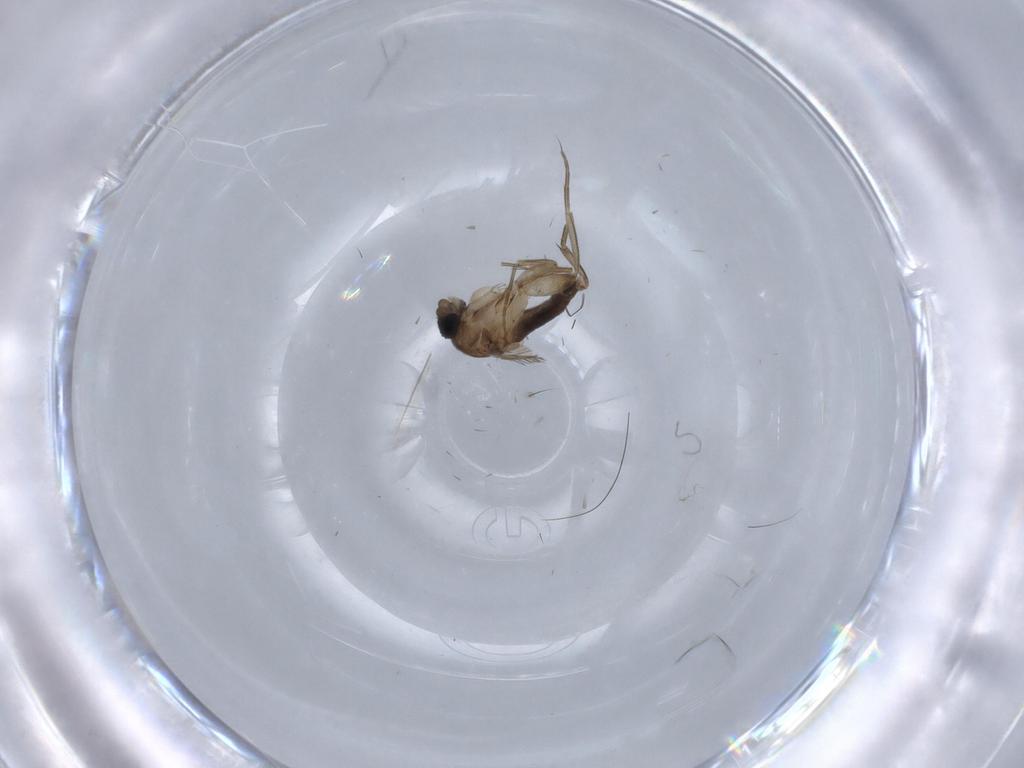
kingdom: Animalia
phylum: Arthropoda
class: Insecta
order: Diptera
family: Phoridae
